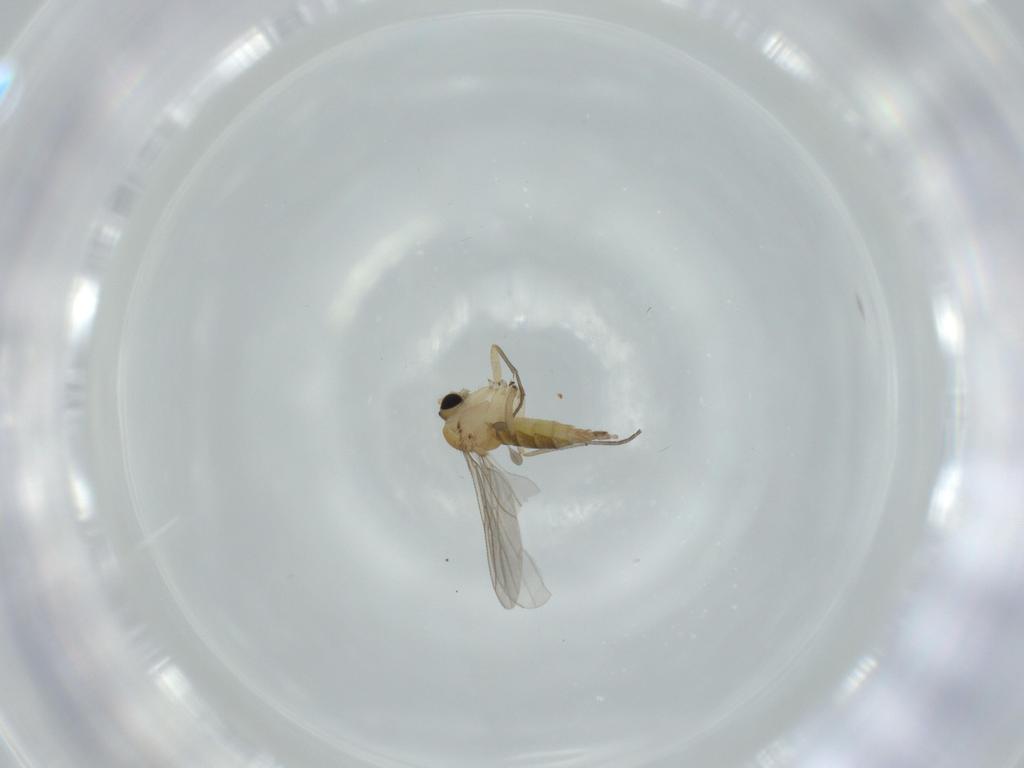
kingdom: Animalia
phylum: Arthropoda
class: Insecta
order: Diptera
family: Sciaridae
